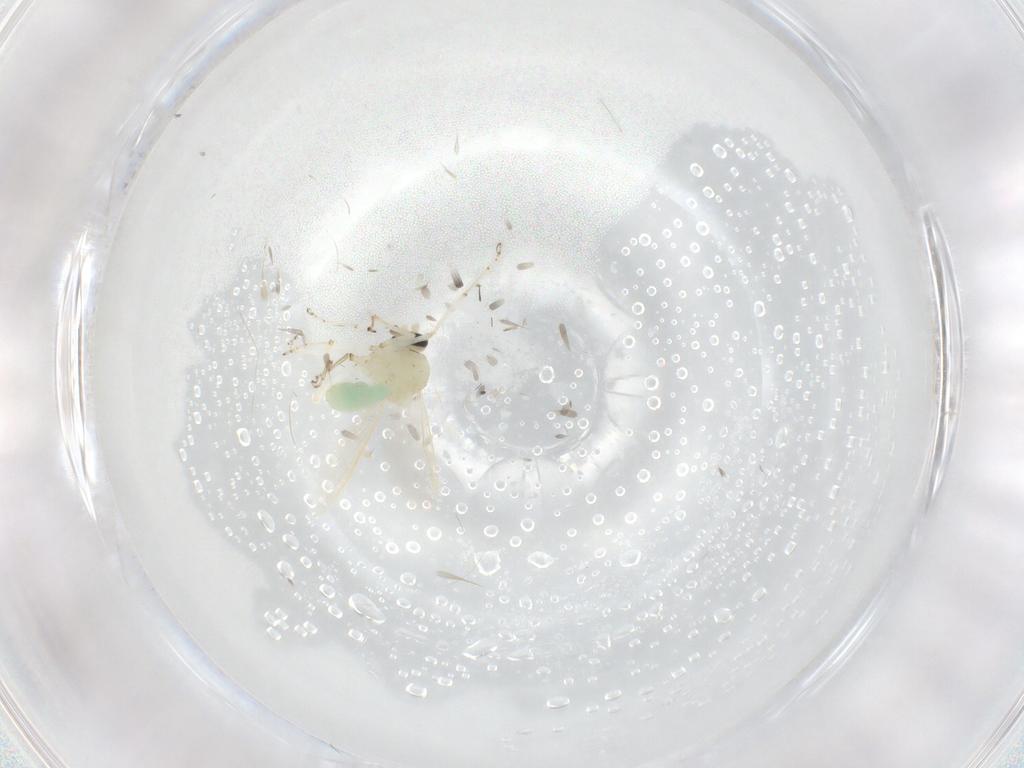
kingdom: Animalia
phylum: Arthropoda
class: Insecta
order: Diptera
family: Ceratopogonidae
